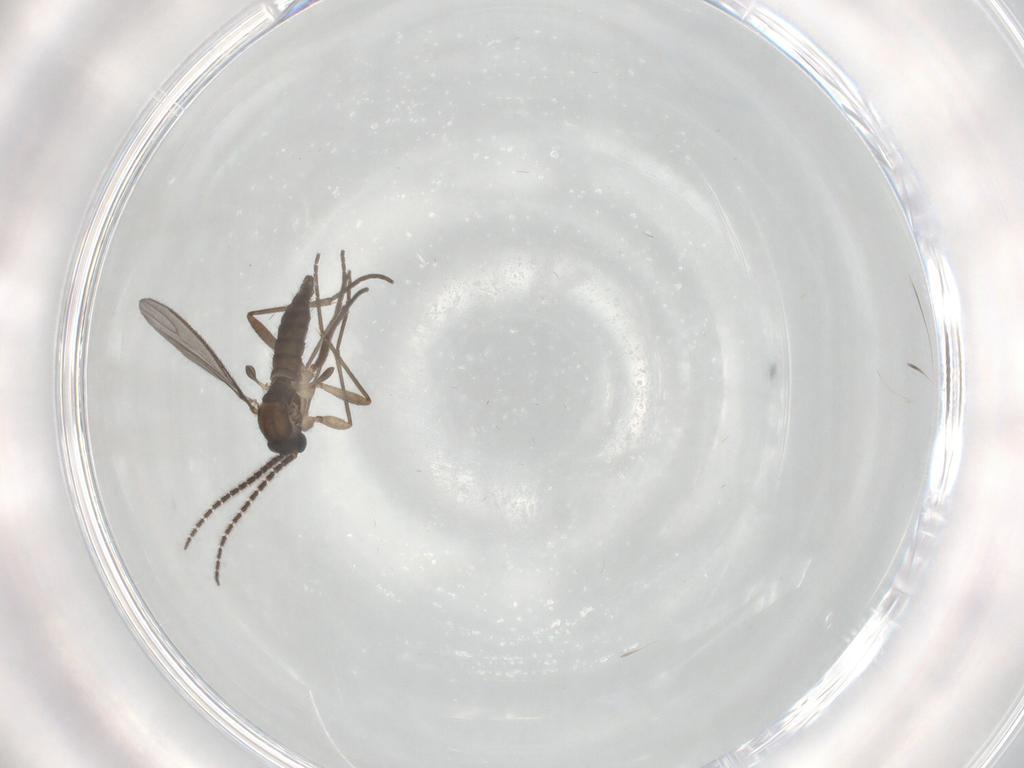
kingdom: Animalia
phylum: Arthropoda
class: Insecta
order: Diptera
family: Sciaridae
